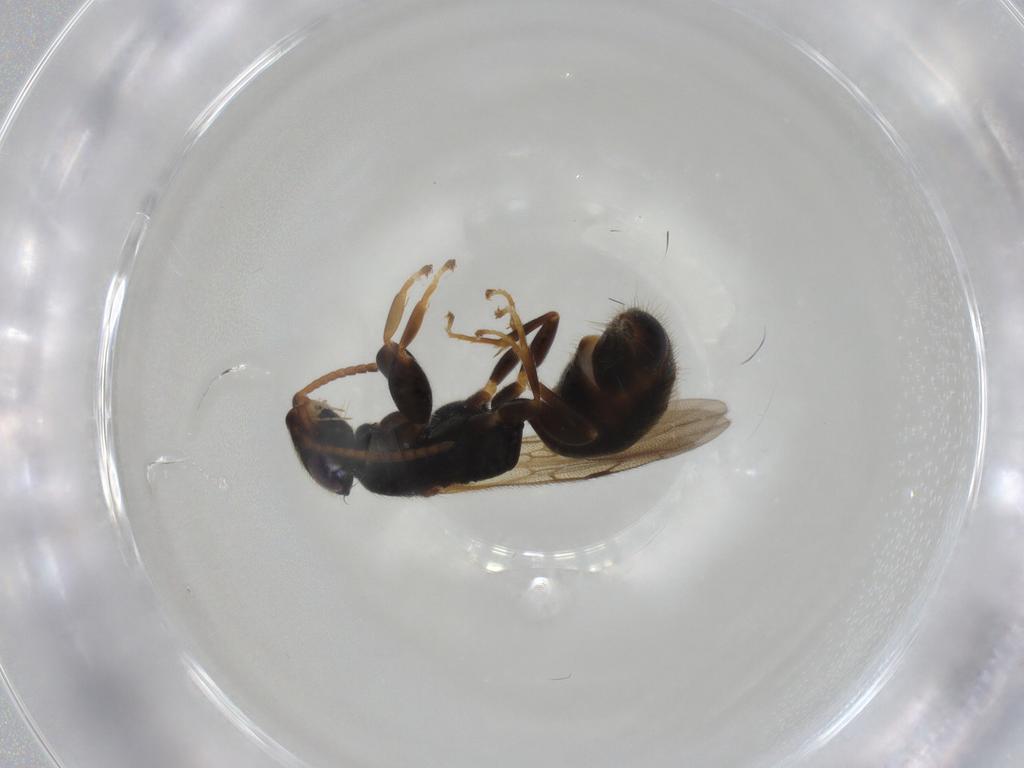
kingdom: Animalia
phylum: Arthropoda
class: Insecta
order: Hymenoptera
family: Bethylidae
